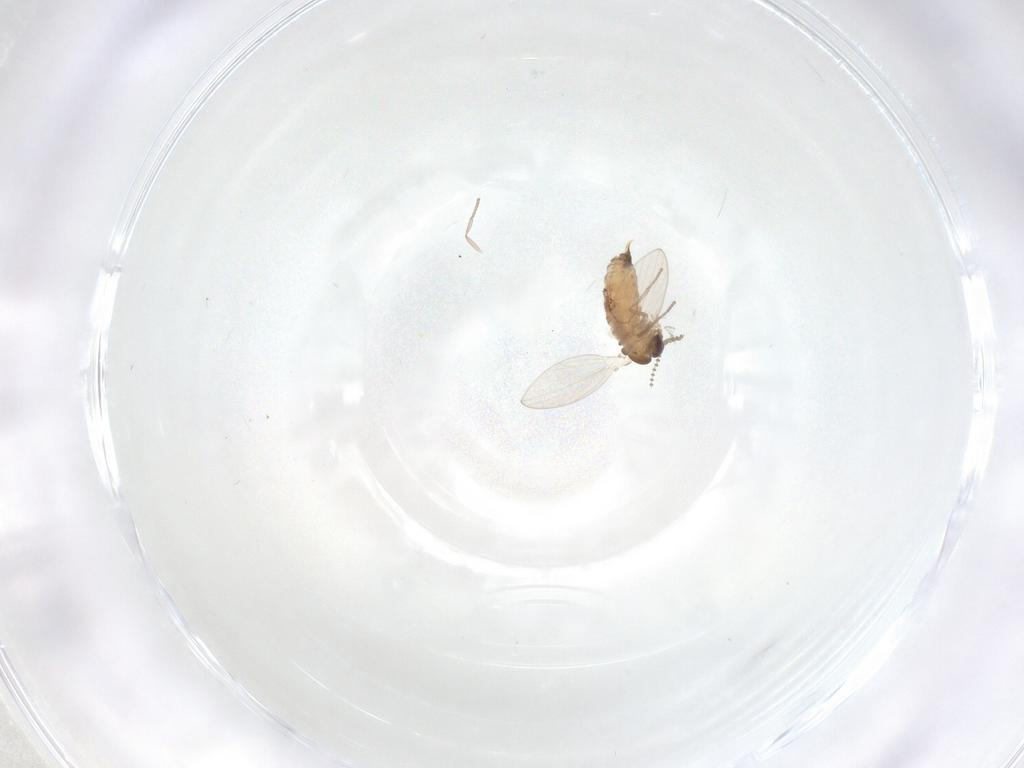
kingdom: Animalia
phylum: Arthropoda
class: Insecta
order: Diptera
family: Psychodidae
